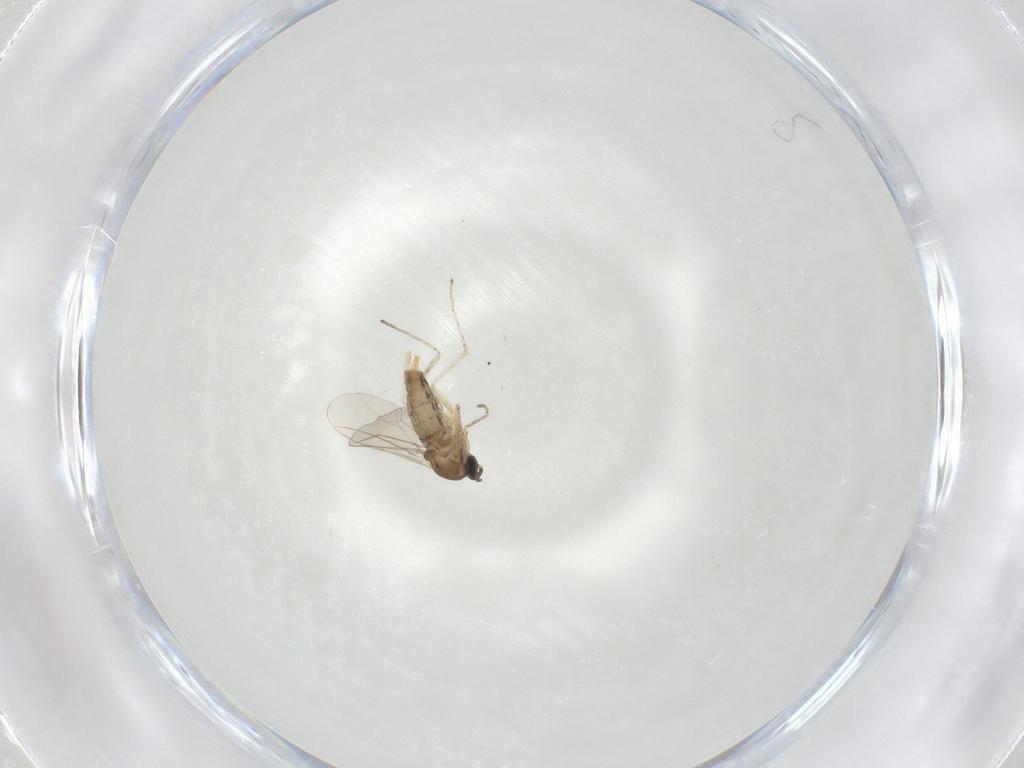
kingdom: Animalia
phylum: Arthropoda
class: Insecta
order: Diptera
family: Cecidomyiidae
